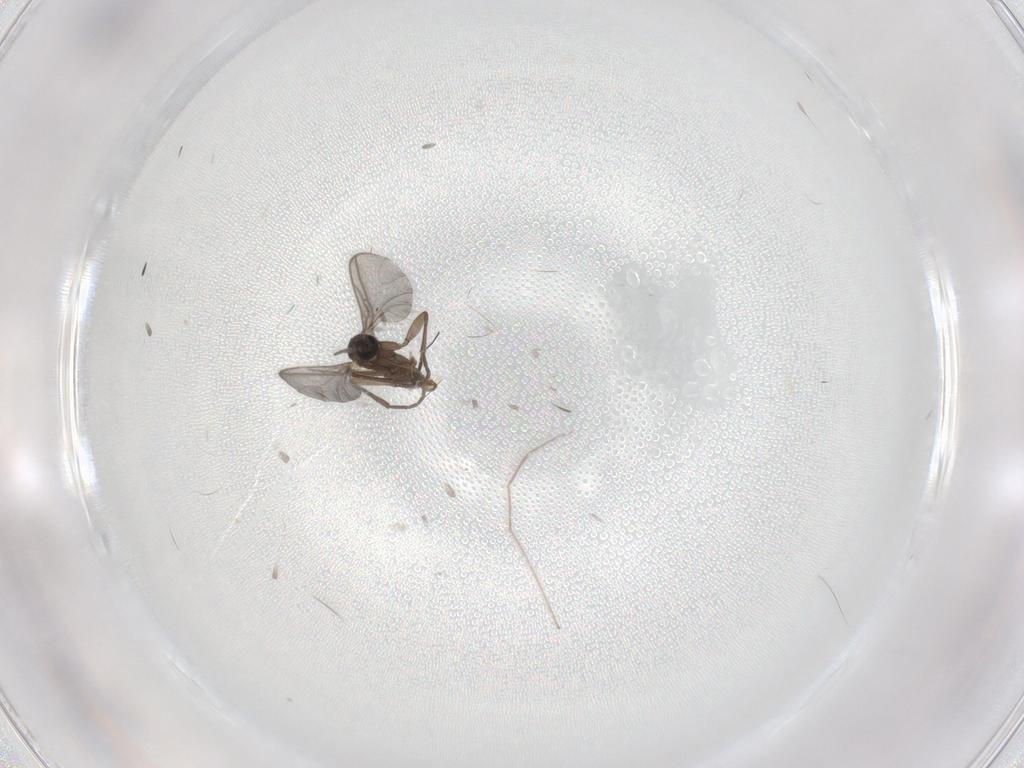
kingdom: Animalia
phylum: Arthropoda
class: Insecta
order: Diptera
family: Sciaridae
